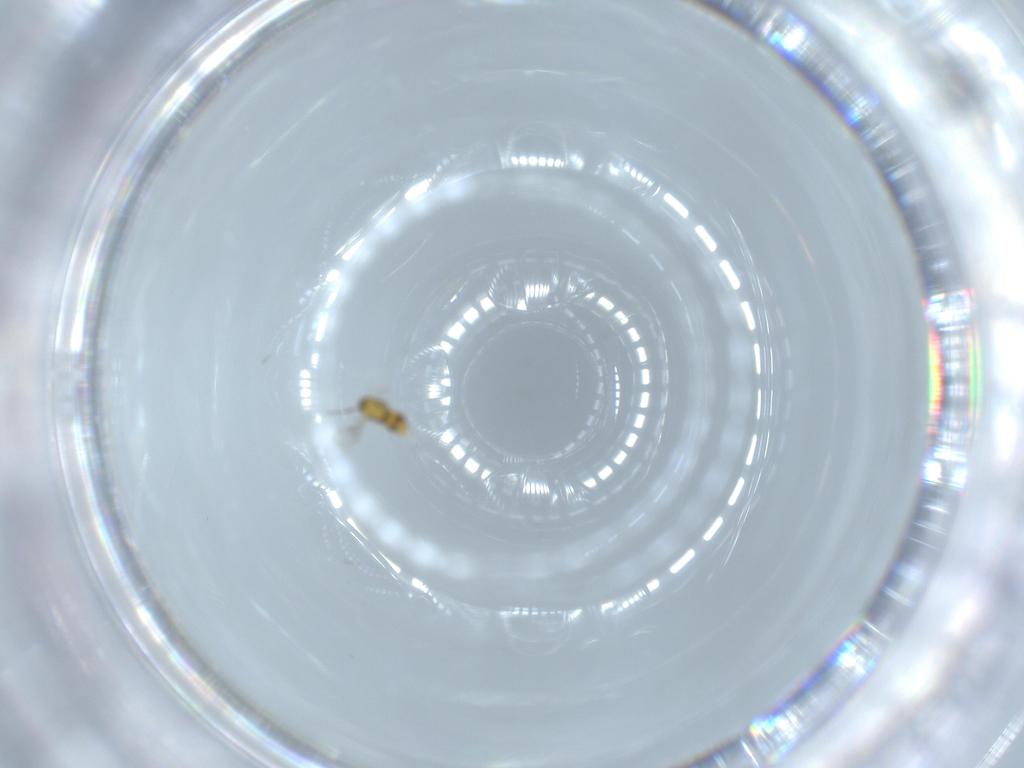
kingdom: Animalia
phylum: Arthropoda
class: Insecta
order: Hymenoptera
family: Aphelinidae
